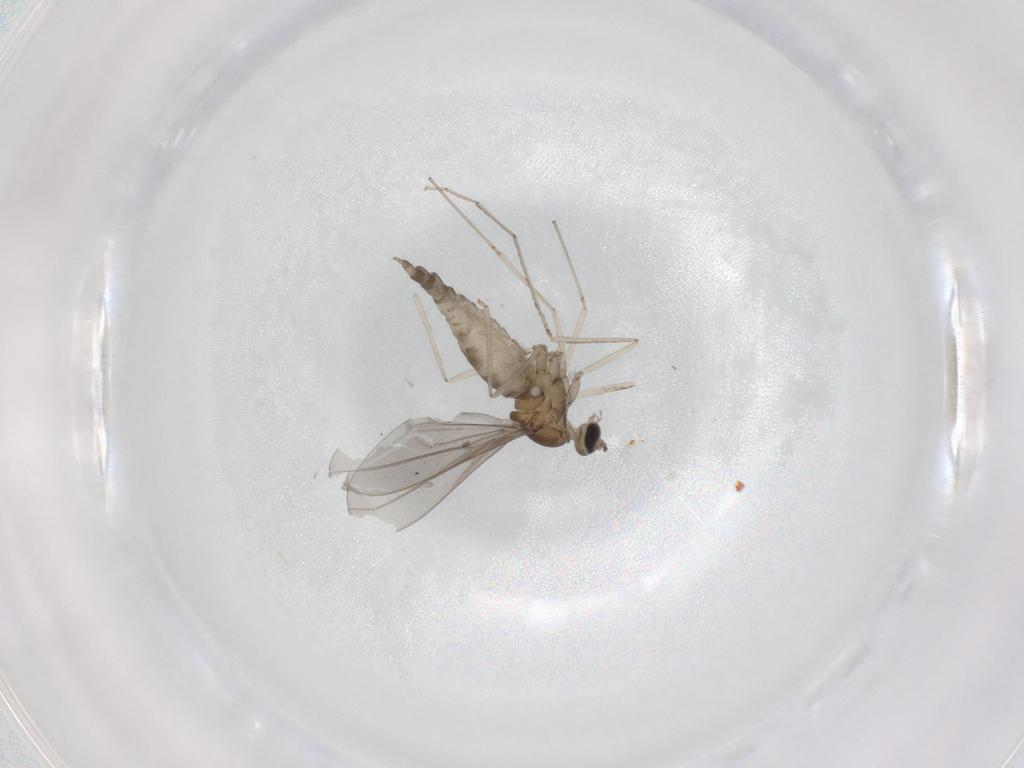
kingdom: Animalia
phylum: Arthropoda
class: Insecta
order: Diptera
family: Cecidomyiidae
